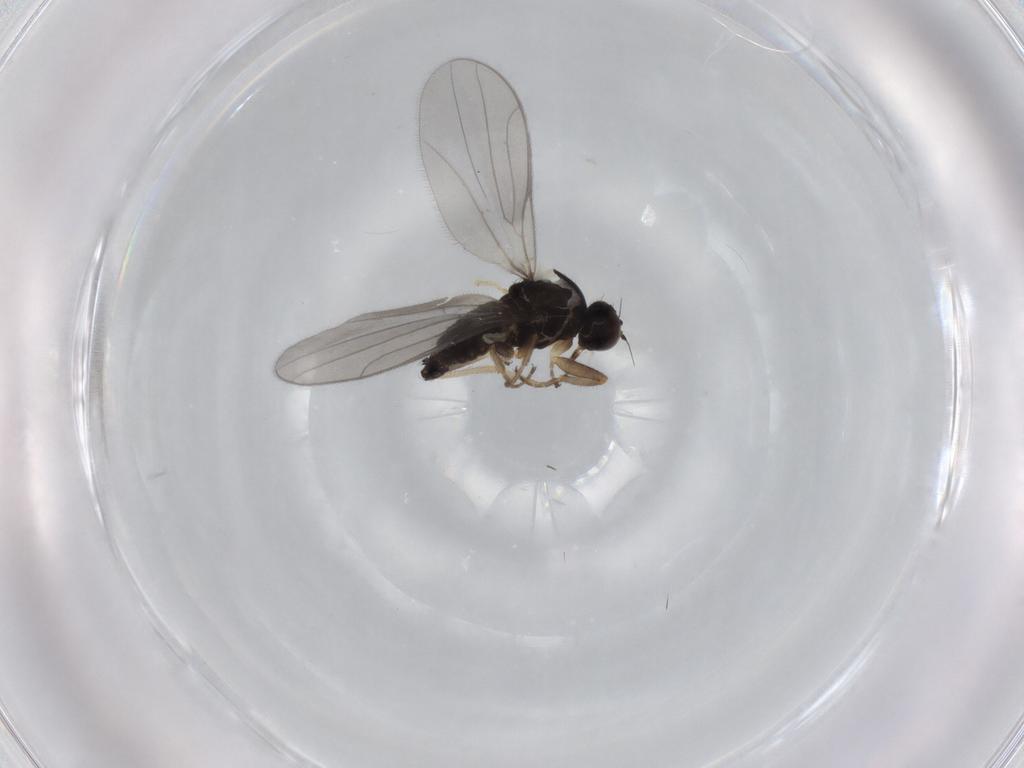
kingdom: Animalia
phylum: Arthropoda
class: Insecta
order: Diptera
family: Hybotidae
